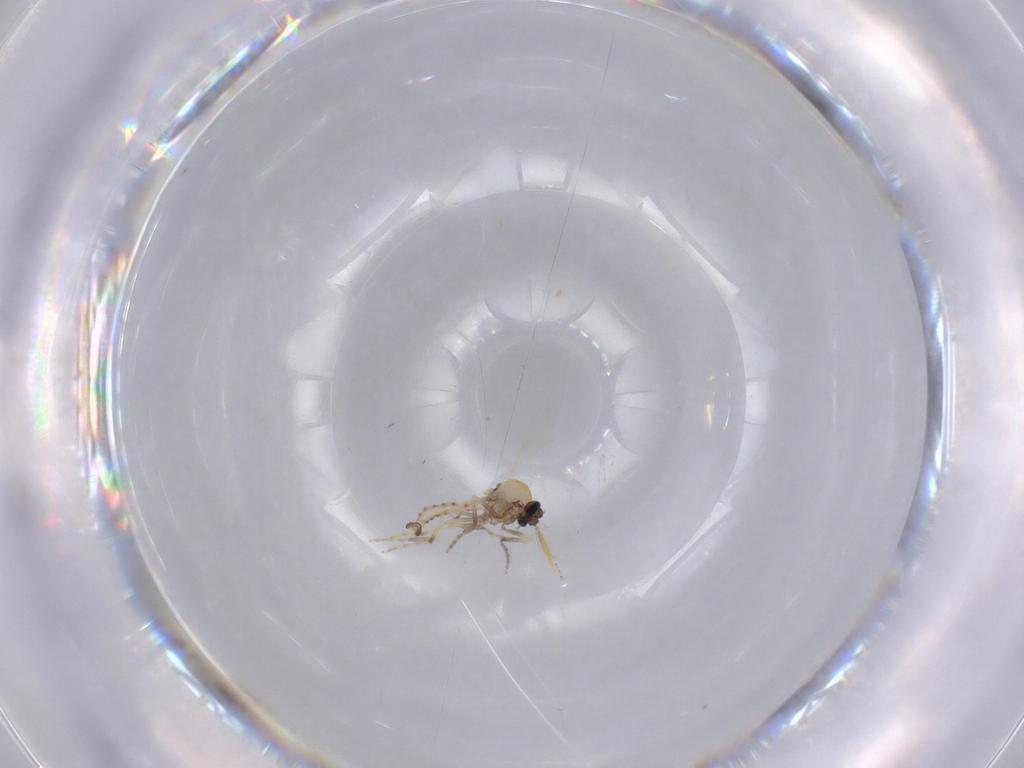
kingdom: Animalia
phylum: Arthropoda
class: Insecta
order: Diptera
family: Ceratopogonidae
